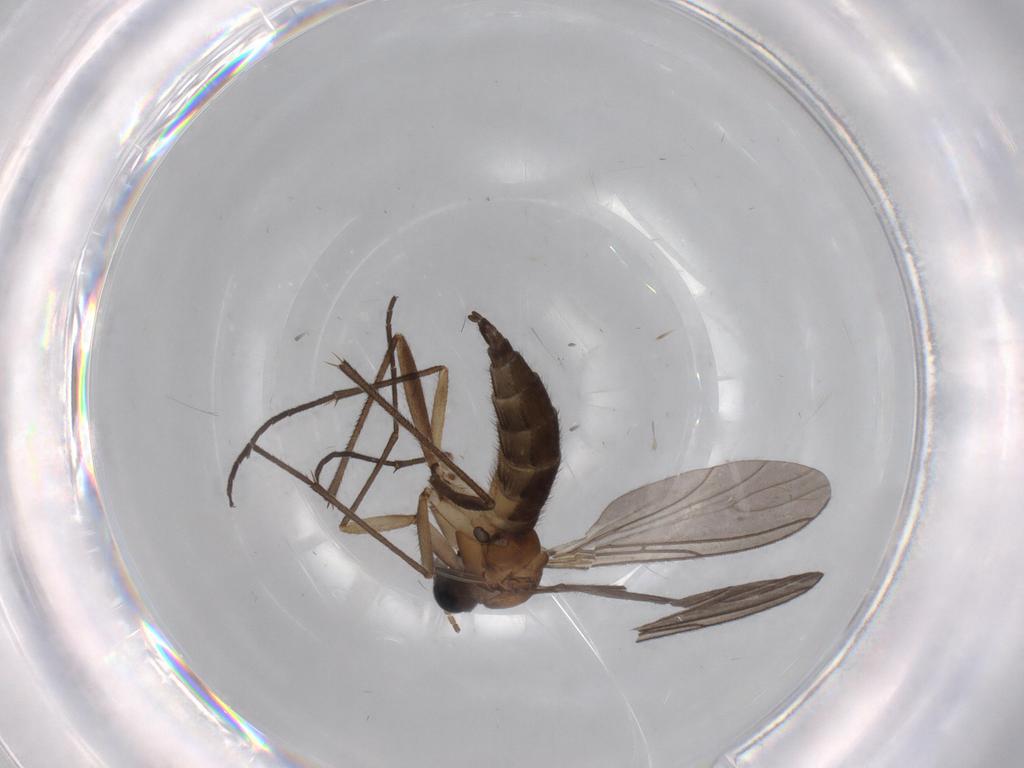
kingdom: Animalia
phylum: Arthropoda
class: Insecta
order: Diptera
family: Sciaridae
